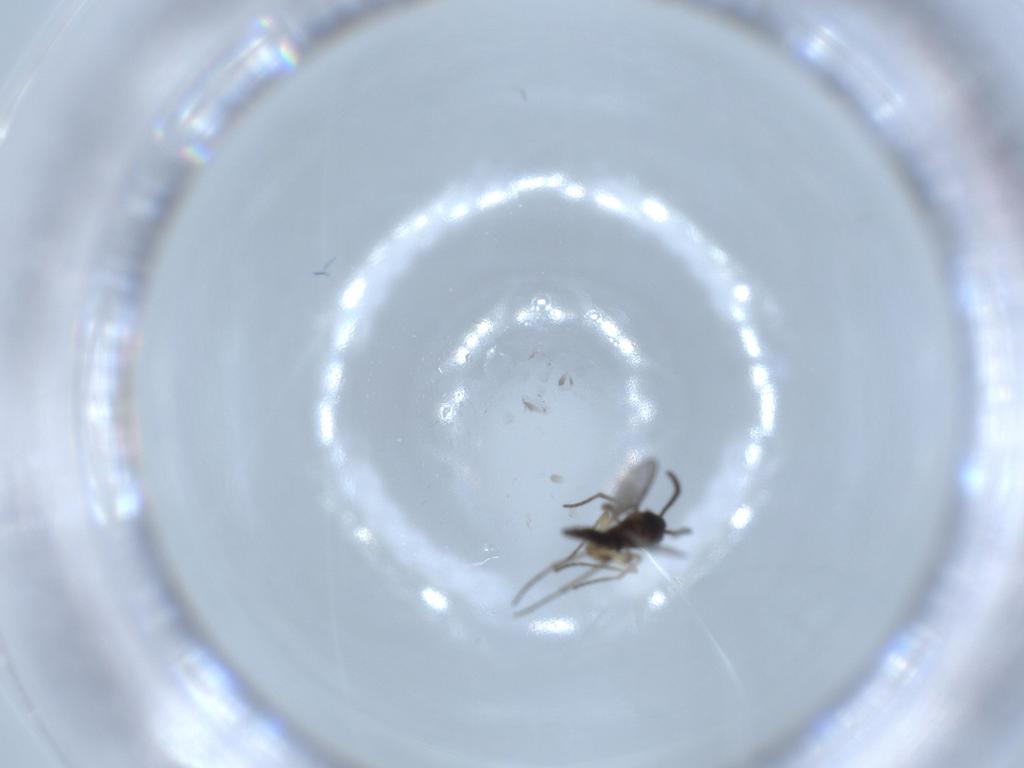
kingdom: Animalia
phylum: Arthropoda
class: Insecta
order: Diptera
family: Sciaridae
